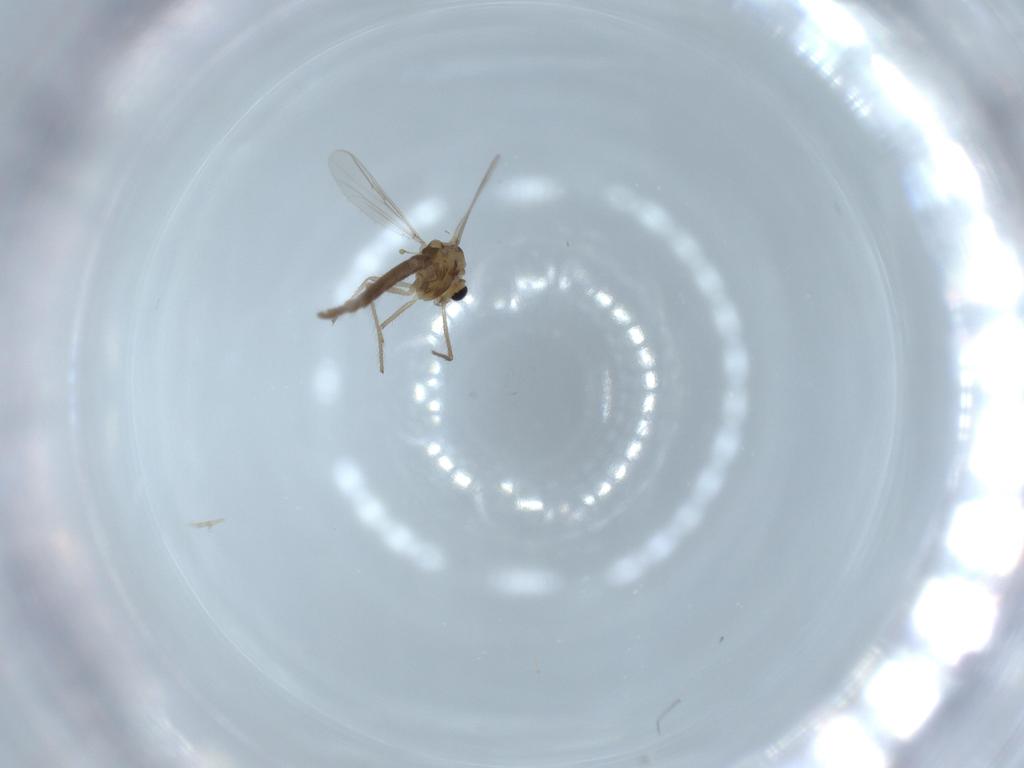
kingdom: Animalia
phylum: Arthropoda
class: Insecta
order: Diptera
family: Chironomidae
